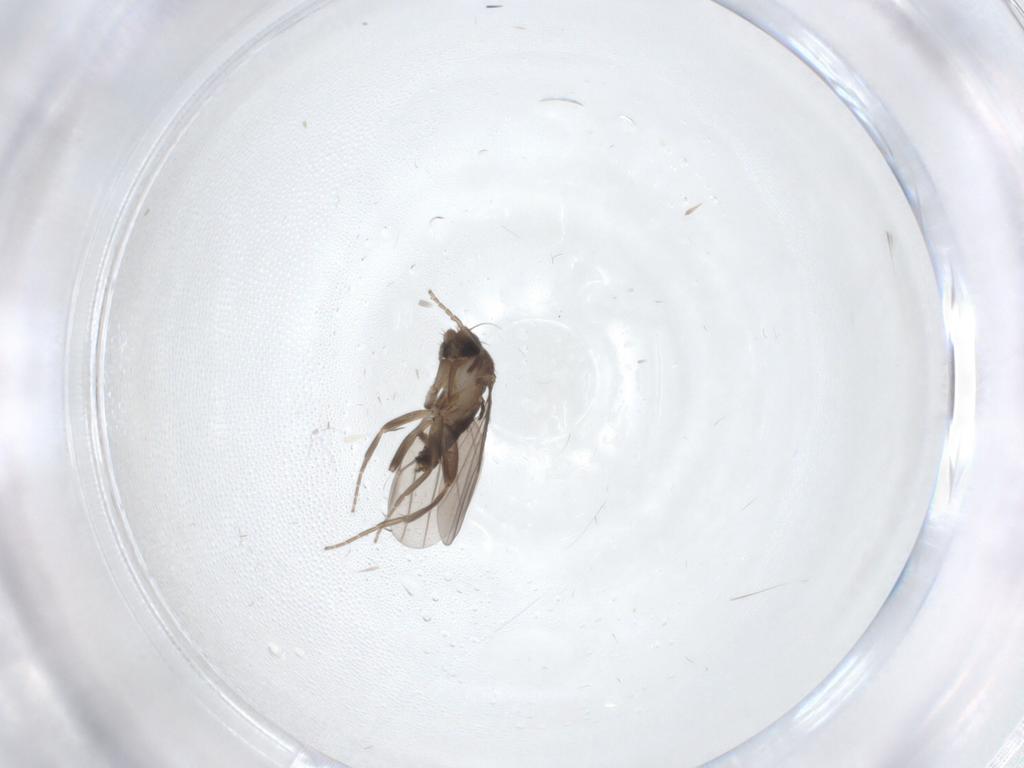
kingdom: Animalia
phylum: Arthropoda
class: Insecta
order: Diptera
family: Chironomidae
